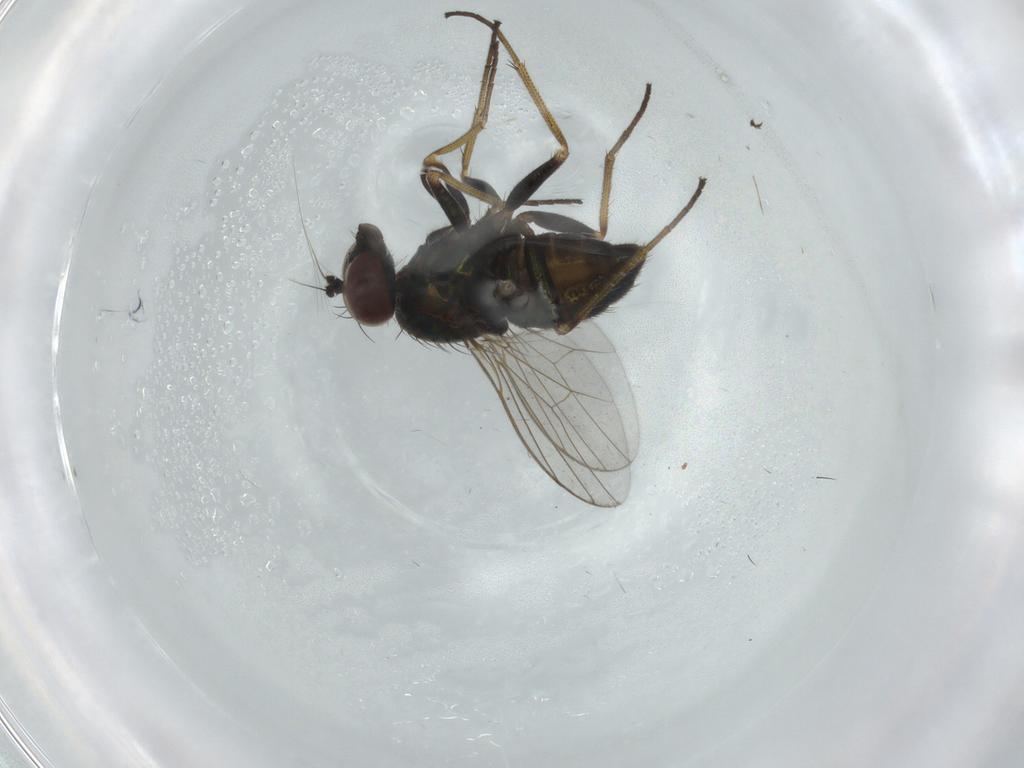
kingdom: Animalia
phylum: Arthropoda
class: Insecta
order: Diptera
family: Dolichopodidae
